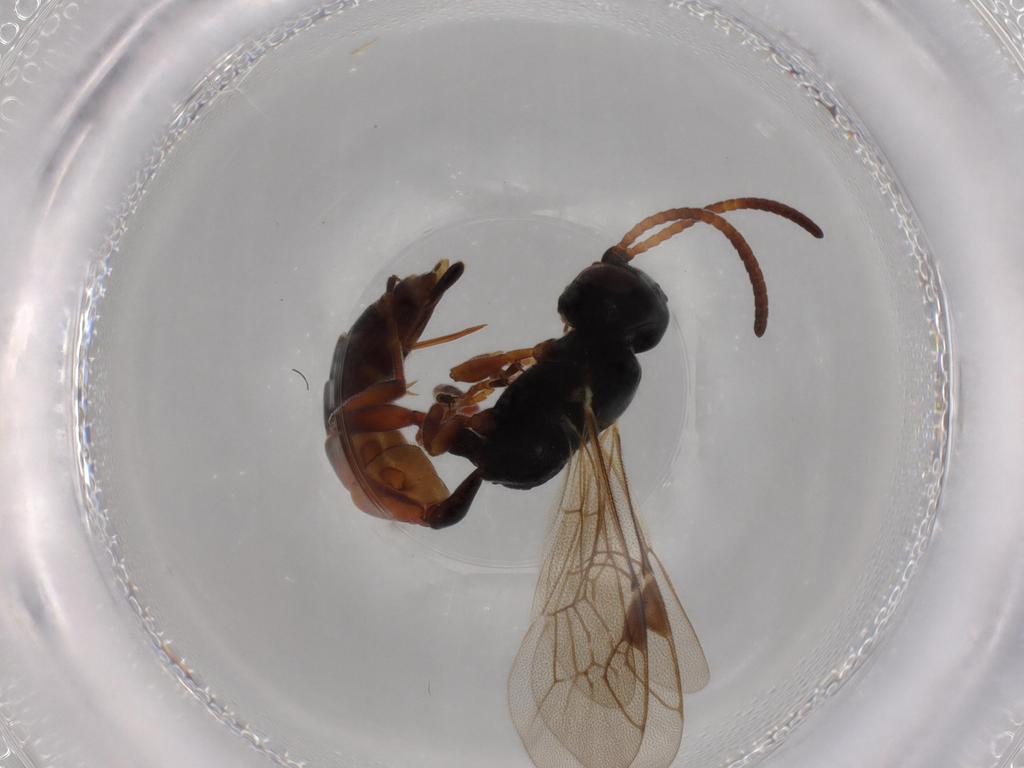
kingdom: Animalia
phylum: Arthropoda
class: Insecta
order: Hymenoptera
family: Ichneumonidae
